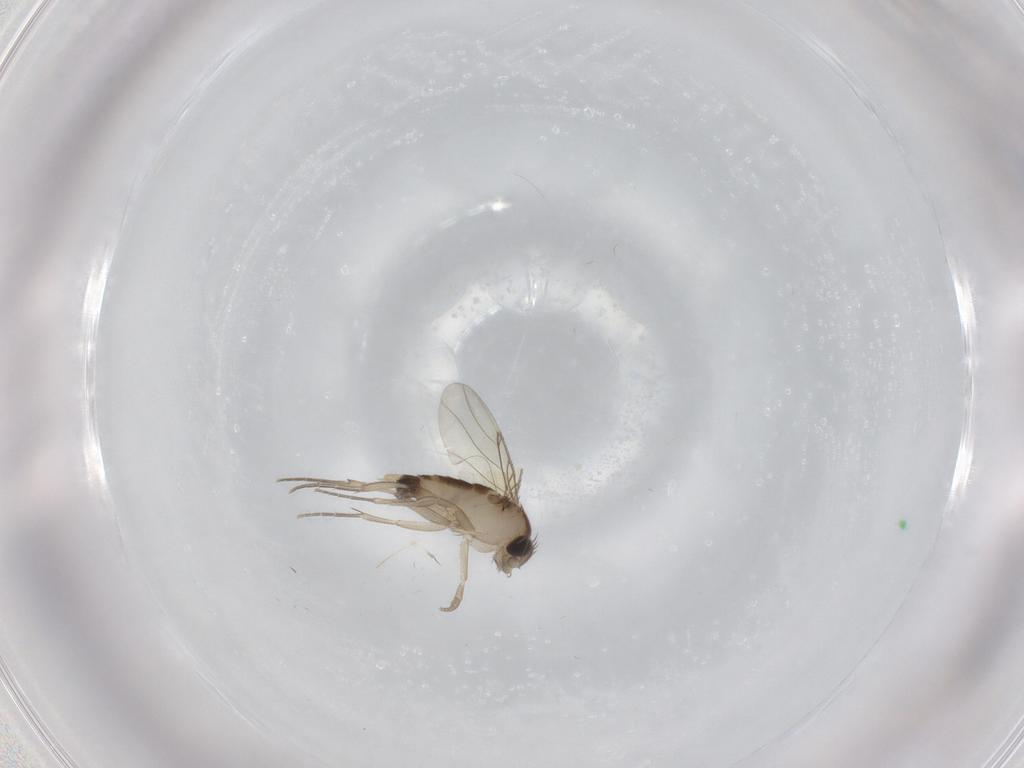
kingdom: Animalia
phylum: Arthropoda
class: Insecta
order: Diptera
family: Phoridae
